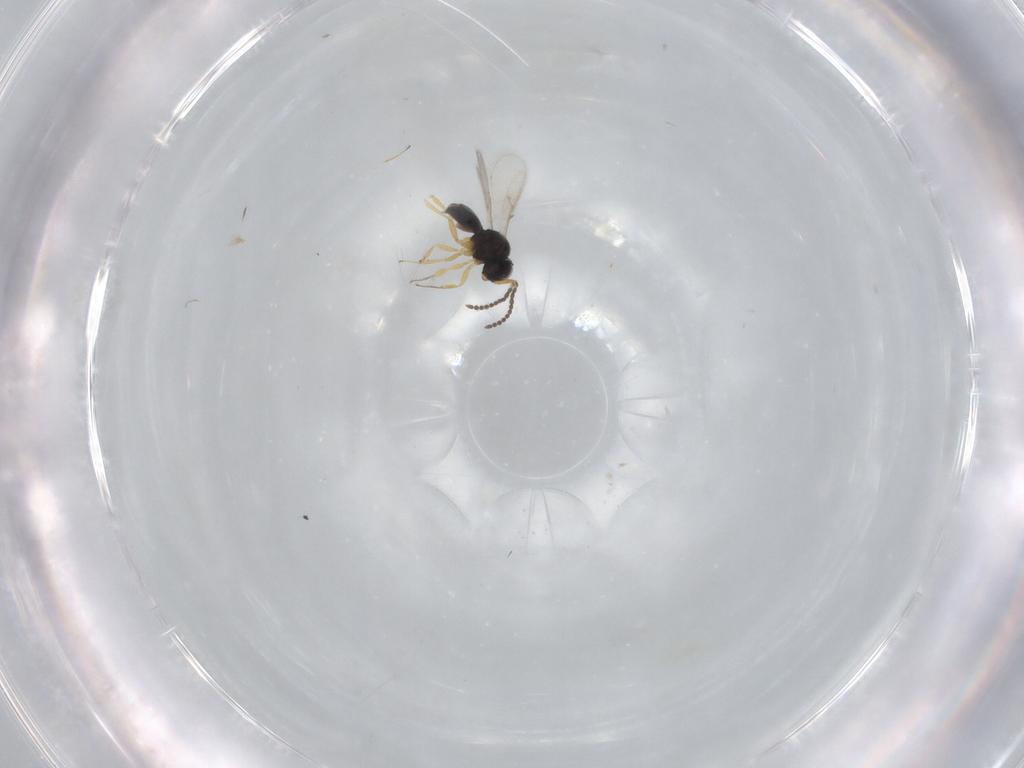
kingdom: Animalia
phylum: Arthropoda
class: Insecta
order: Hymenoptera
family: Scelionidae
